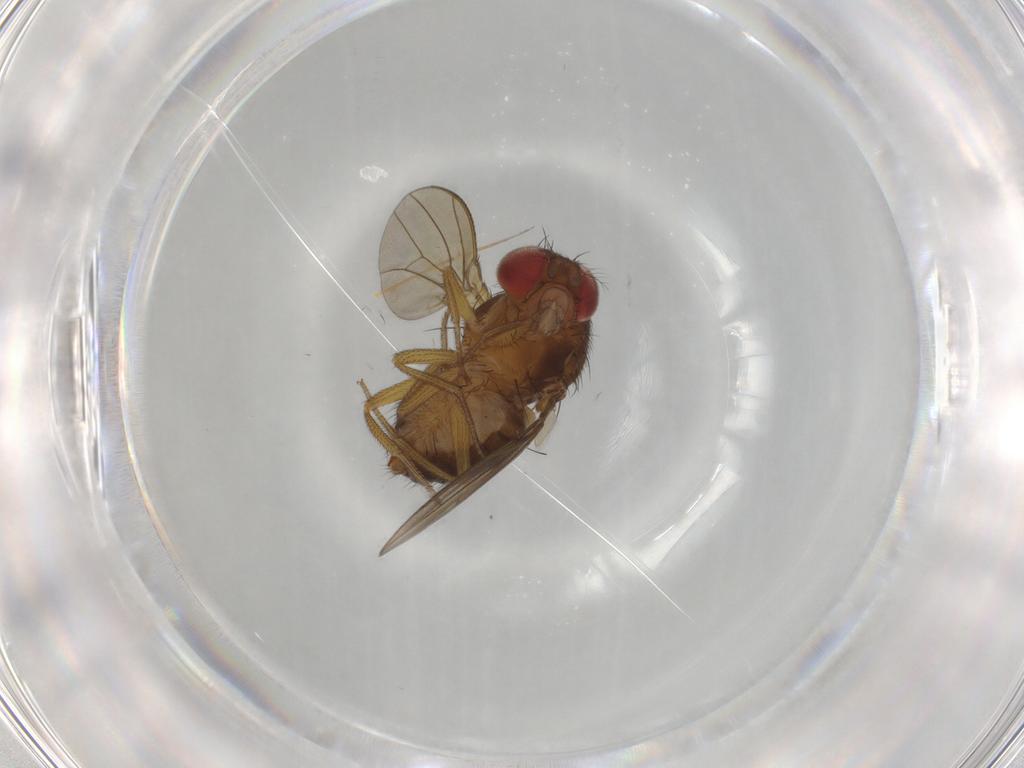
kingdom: Animalia
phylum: Arthropoda
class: Insecta
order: Diptera
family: Drosophilidae
